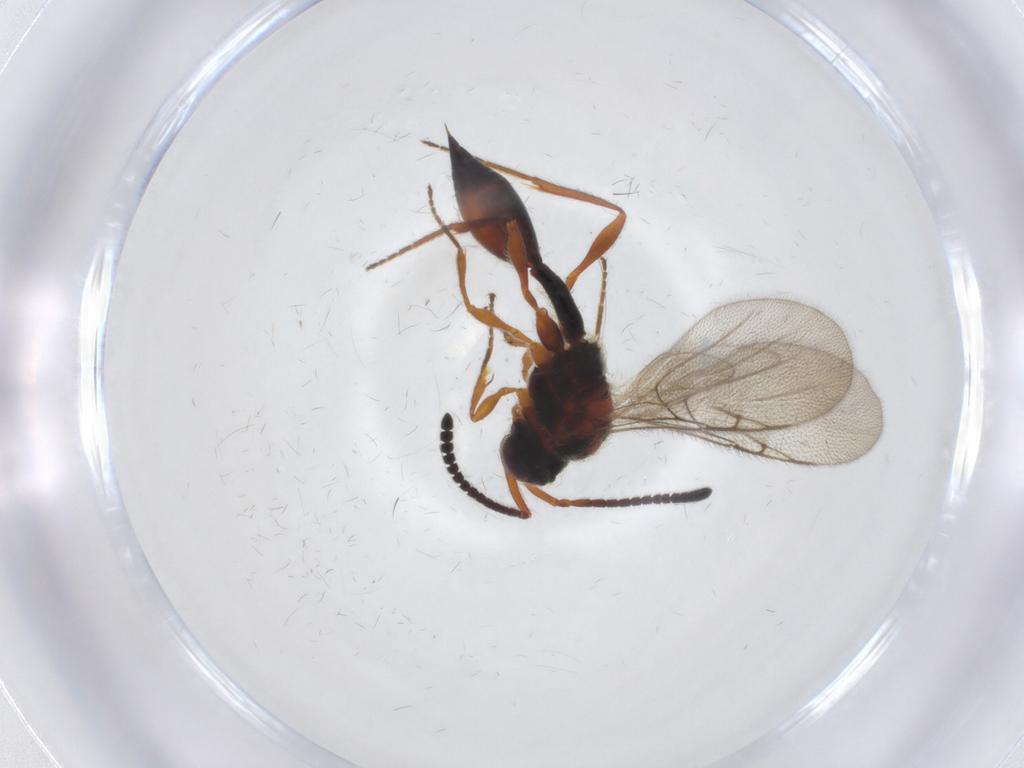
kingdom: Animalia
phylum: Arthropoda
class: Insecta
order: Hymenoptera
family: Diapriidae
